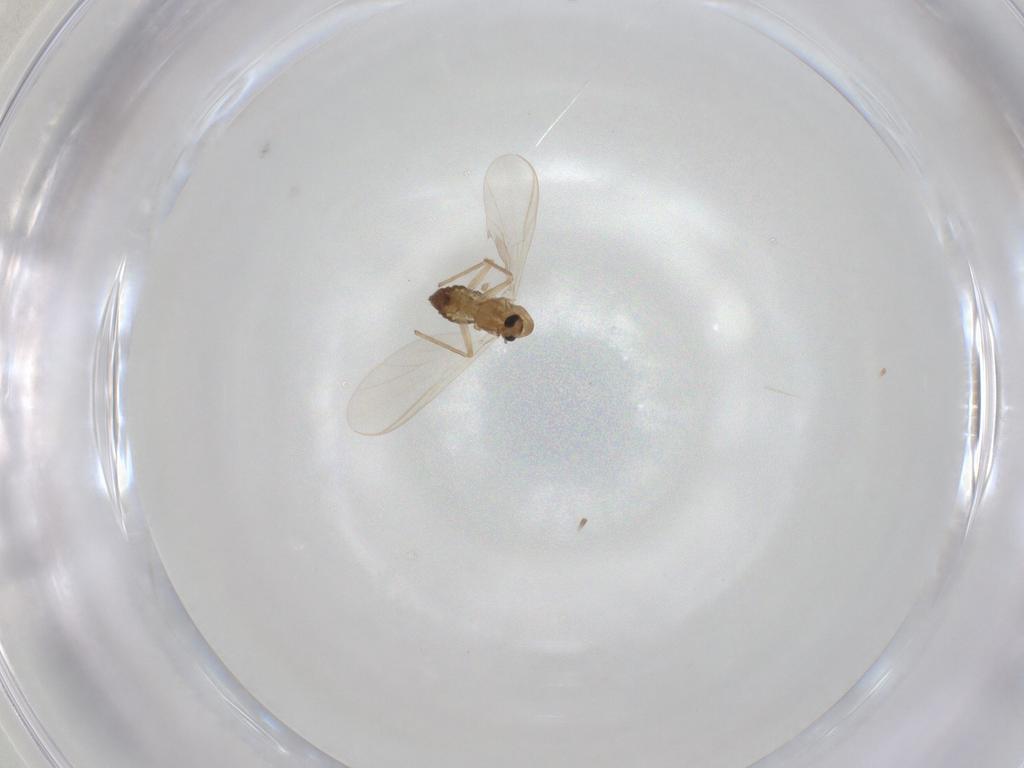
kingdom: Animalia
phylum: Arthropoda
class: Insecta
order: Diptera
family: Chironomidae
